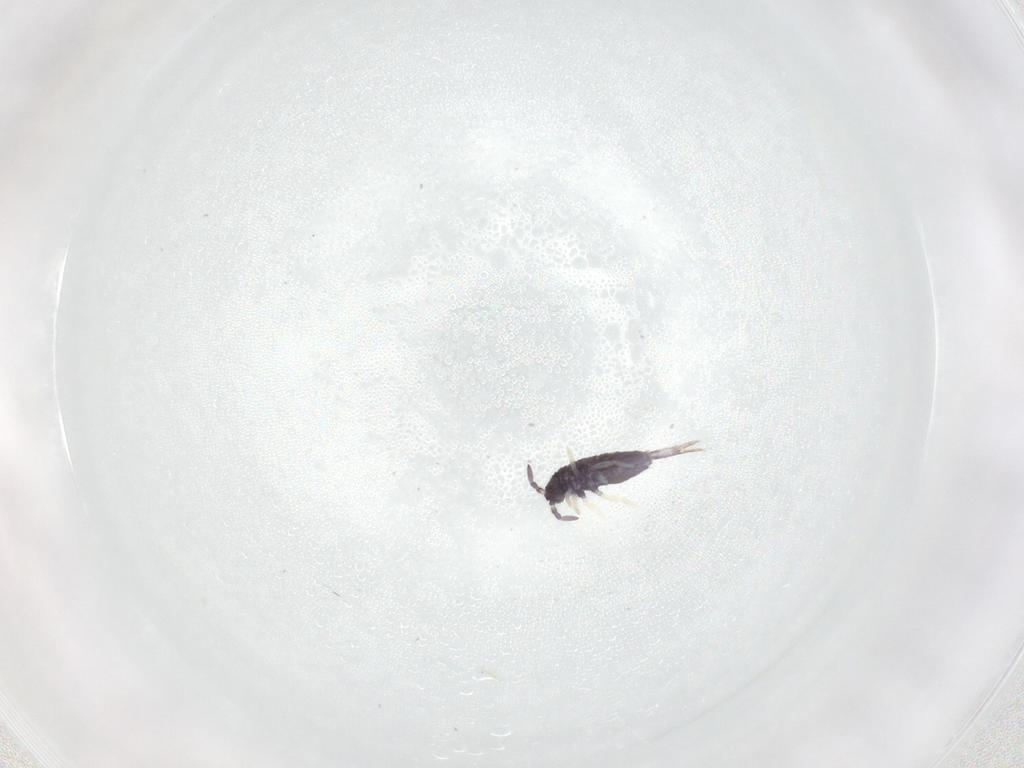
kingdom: Animalia
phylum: Arthropoda
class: Collembola
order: Entomobryomorpha
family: Entomobryidae
